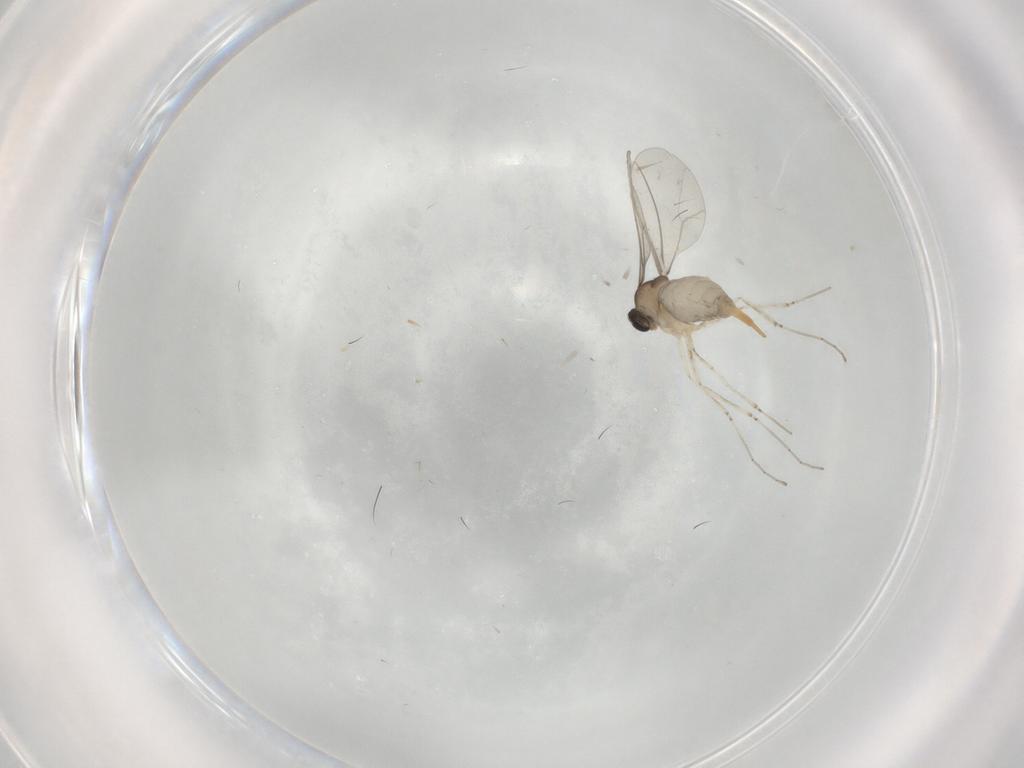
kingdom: Animalia
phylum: Arthropoda
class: Insecta
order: Diptera
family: Cecidomyiidae
